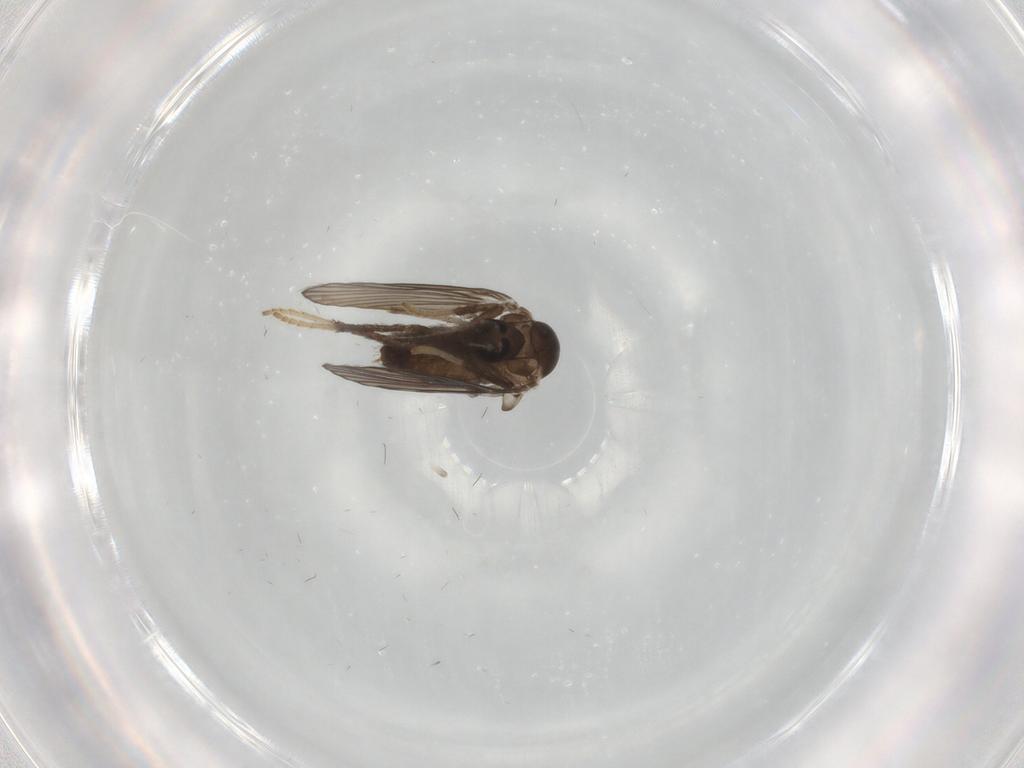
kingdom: Animalia
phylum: Arthropoda
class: Insecta
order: Diptera
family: Psychodidae
